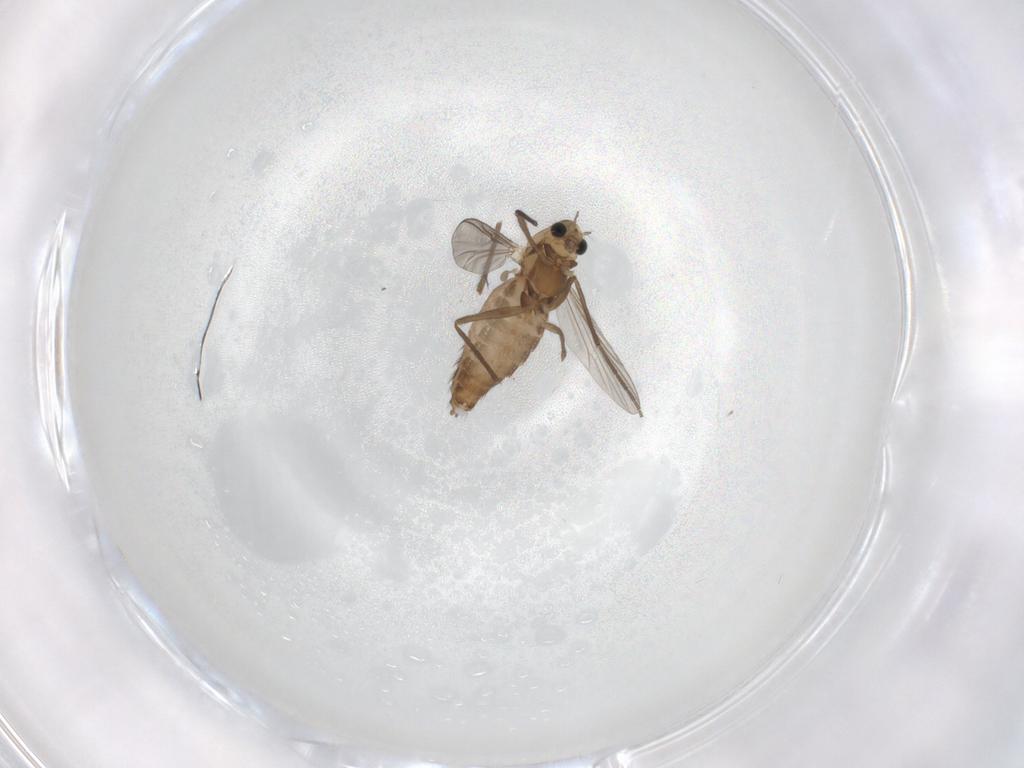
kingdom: Animalia
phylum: Arthropoda
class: Insecta
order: Diptera
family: Chironomidae
